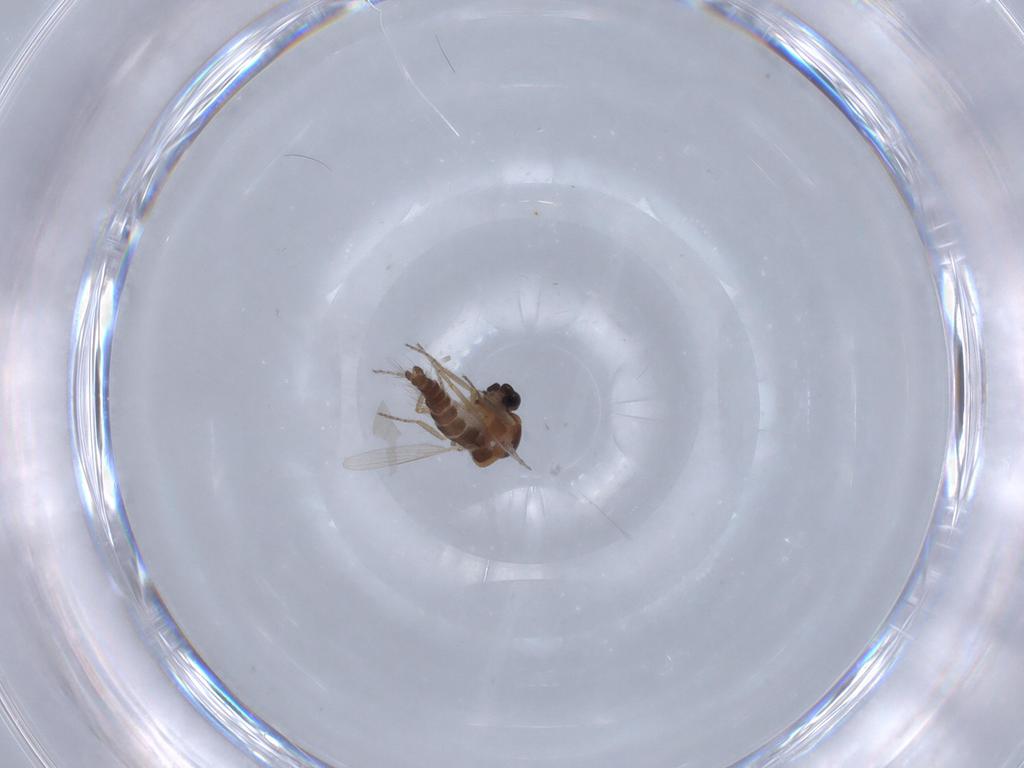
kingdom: Animalia
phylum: Arthropoda
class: Insecta
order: Diptera
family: Ceratopogonidae
